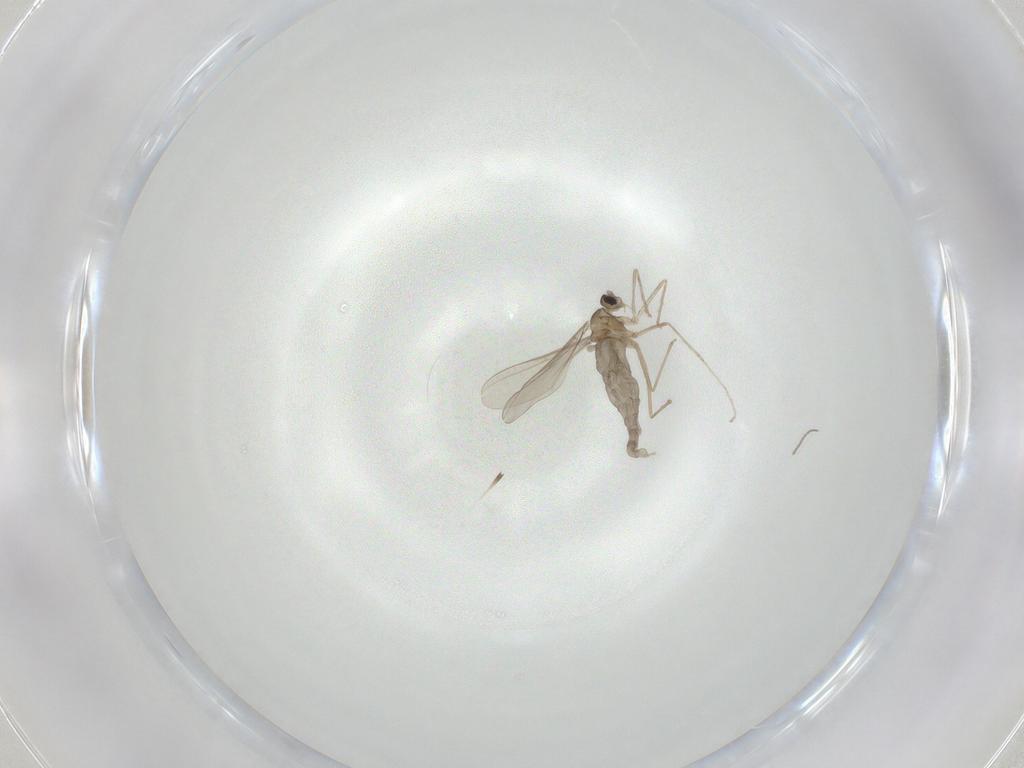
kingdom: Animalia
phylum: Arthropoda
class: Insecta
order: Diptera
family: Cecidomyiidae
